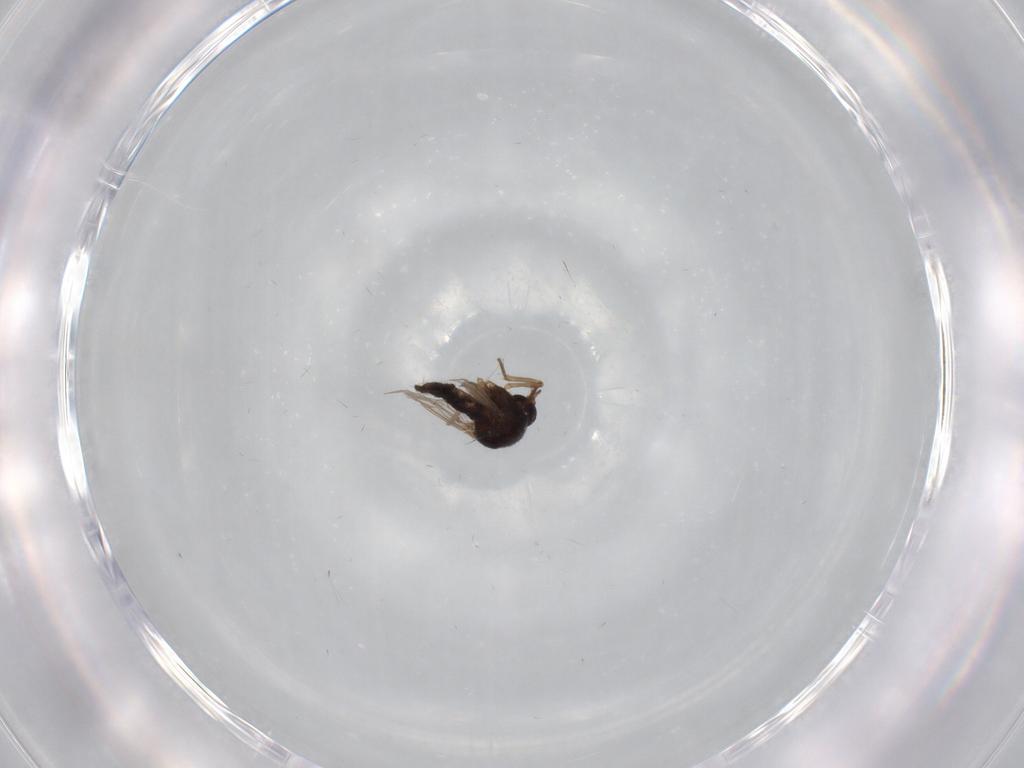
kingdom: Animalia
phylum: Arthropoda
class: Insecta
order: Diptera
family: Ceratopogonidae
